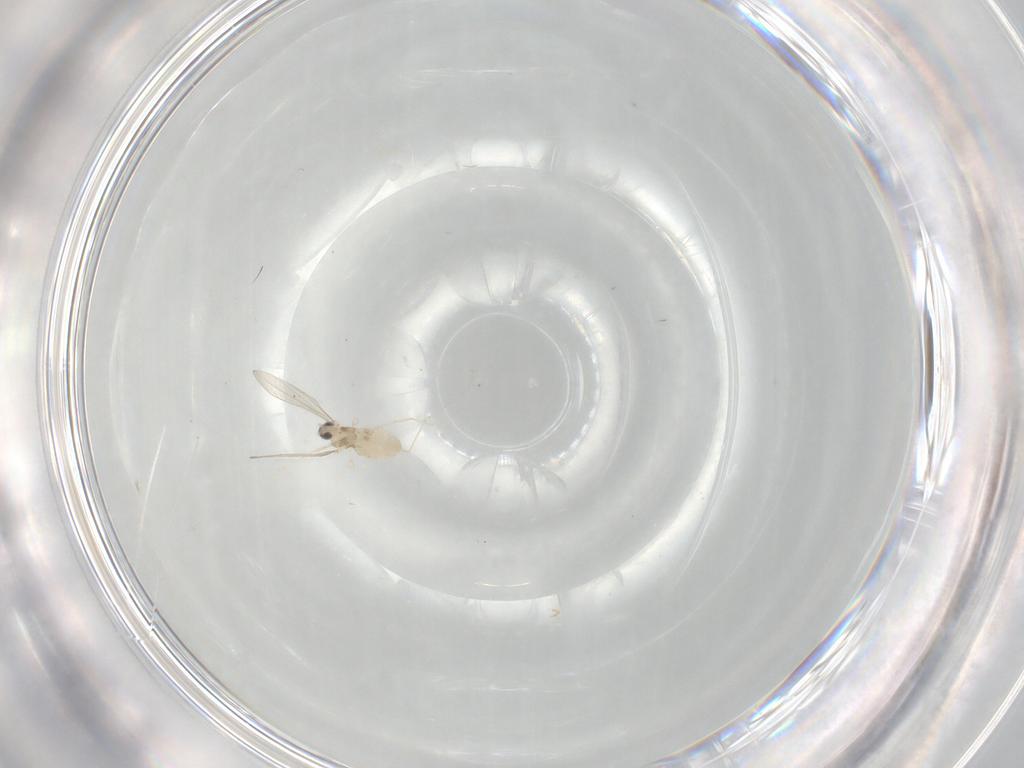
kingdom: Animalia
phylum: Arthropoda
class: Insecta
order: Diptera
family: Cecidomyiidae
